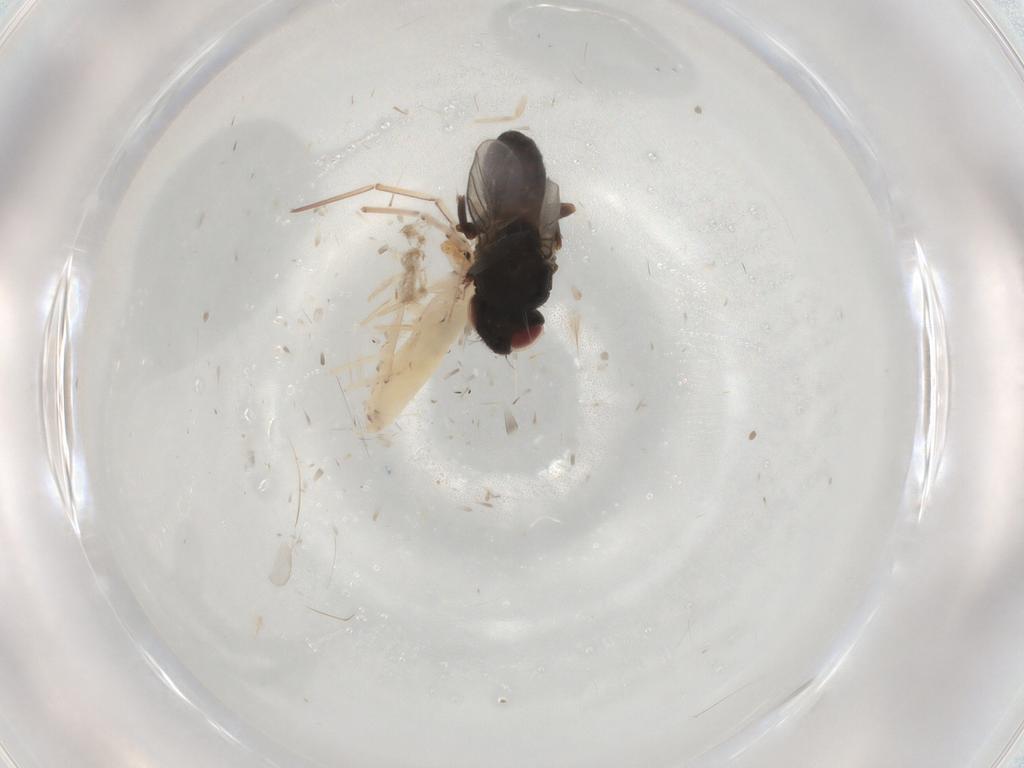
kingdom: Animalia
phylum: Arthropoda
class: Insecta
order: Diptera
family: Chloropidae
